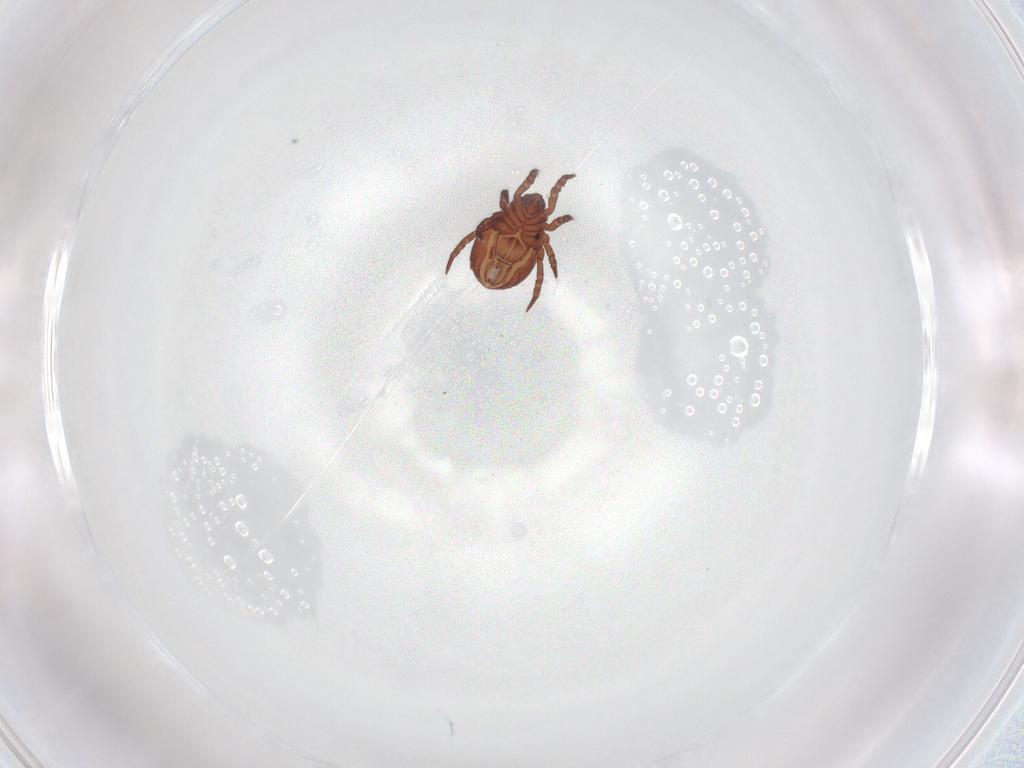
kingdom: Animalia
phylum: Arthropoda
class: Arachnida
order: Sarcoptiformes
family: Nothridae
